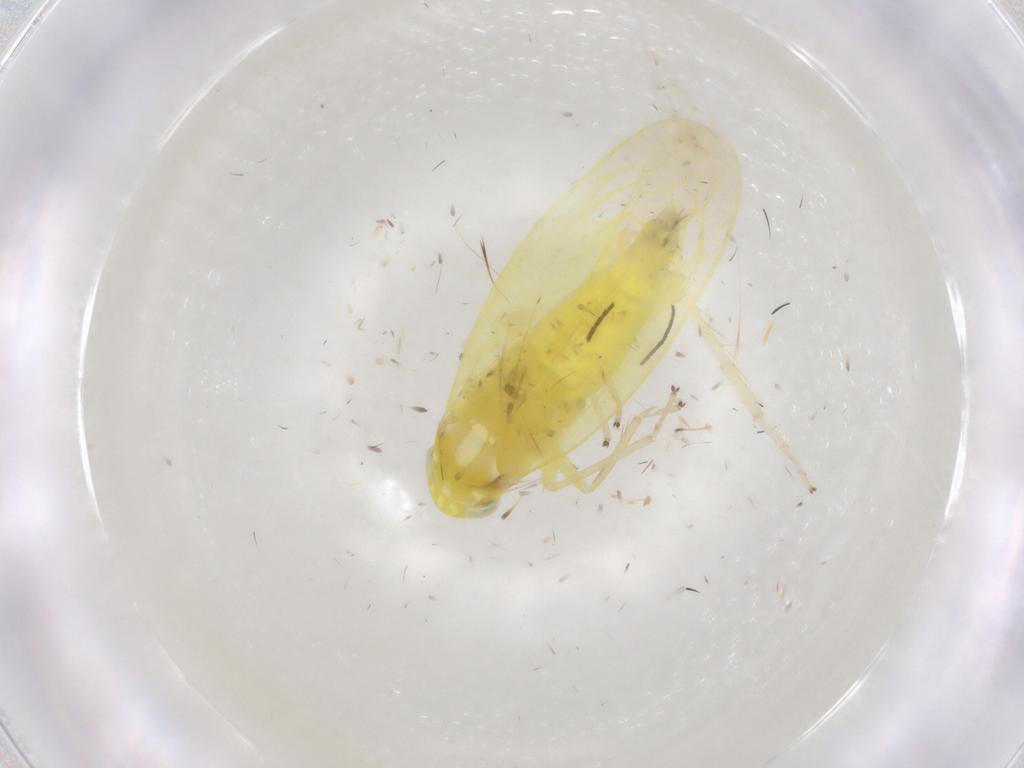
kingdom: Animalia
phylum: Arthropoda
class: Insecta
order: Hemiptera
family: Cicadellidae
